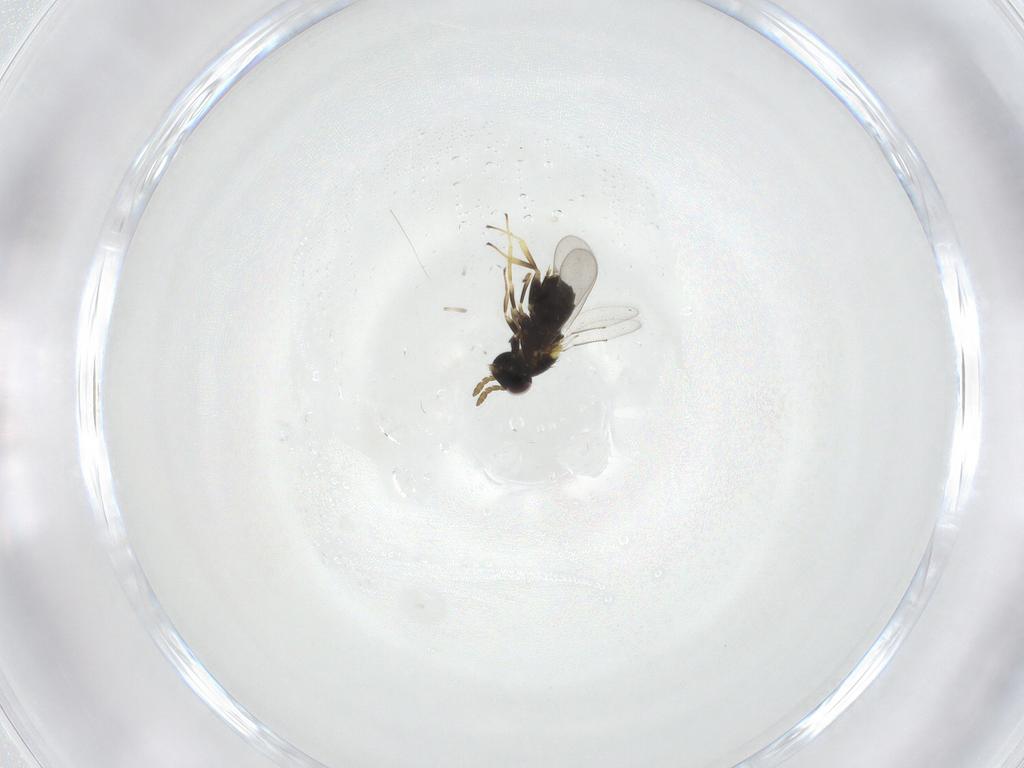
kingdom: Animalia
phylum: Arthropoda
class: Insecta
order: Hymenoptera
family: Aphelinidae
